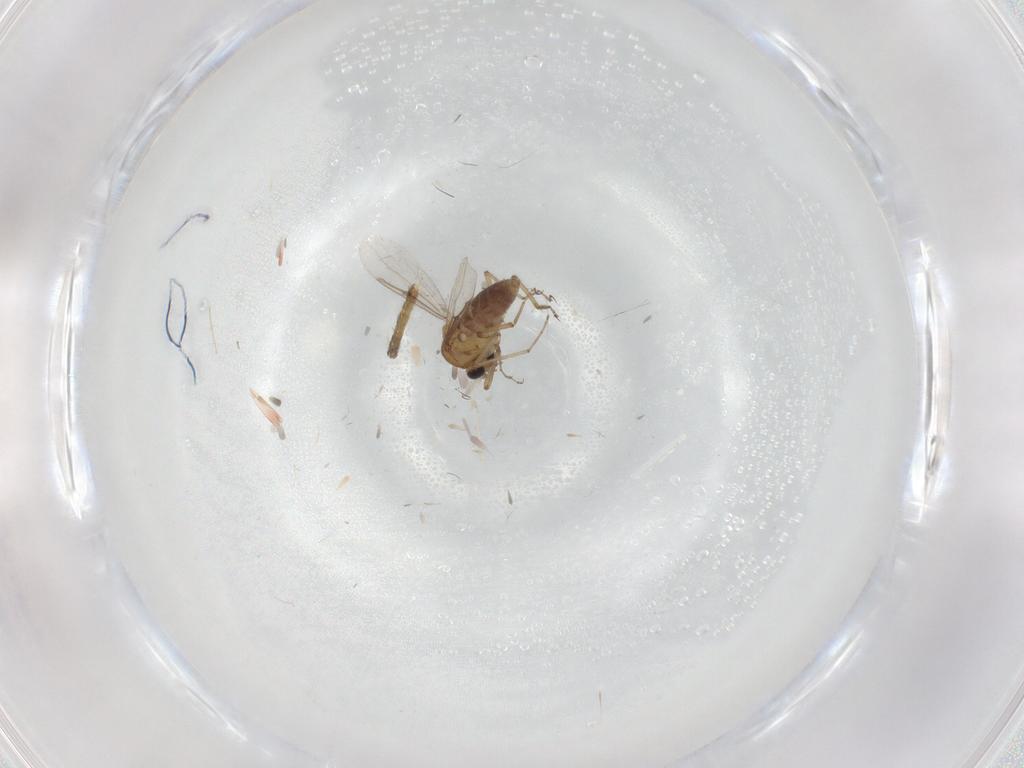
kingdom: Animalia
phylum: Arthropoda
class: Insecta
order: Diptera
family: Cecidomyiidae
